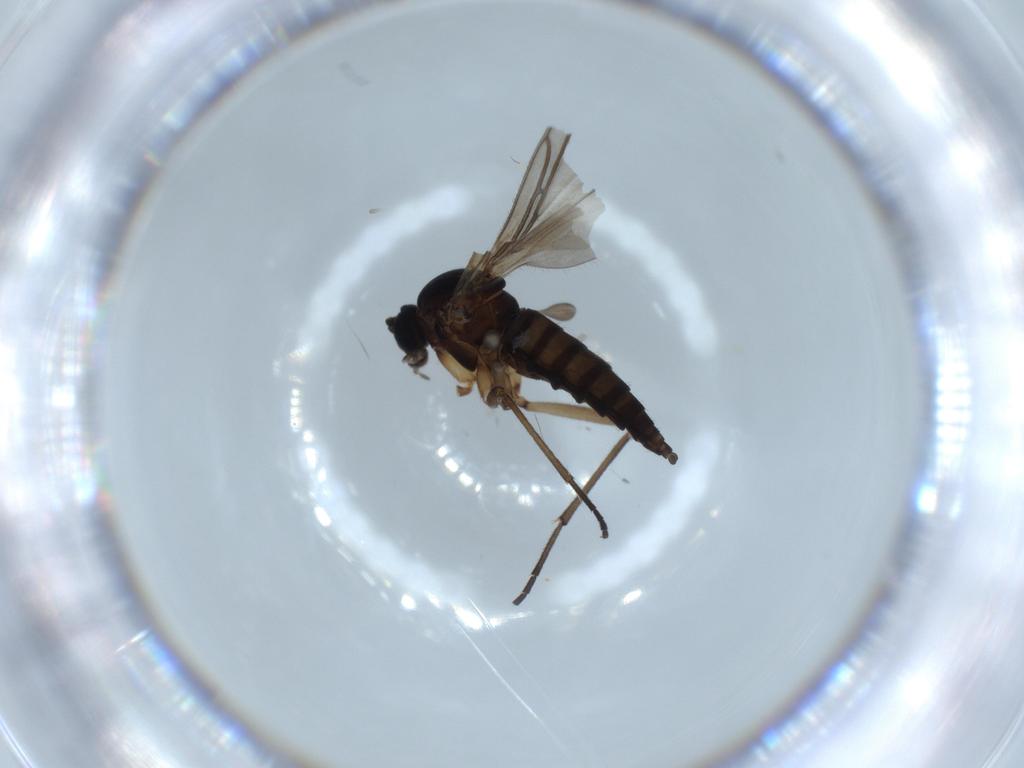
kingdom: Animalia
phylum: Arthropoda
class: Insecta
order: Diptera
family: Sciaridae
